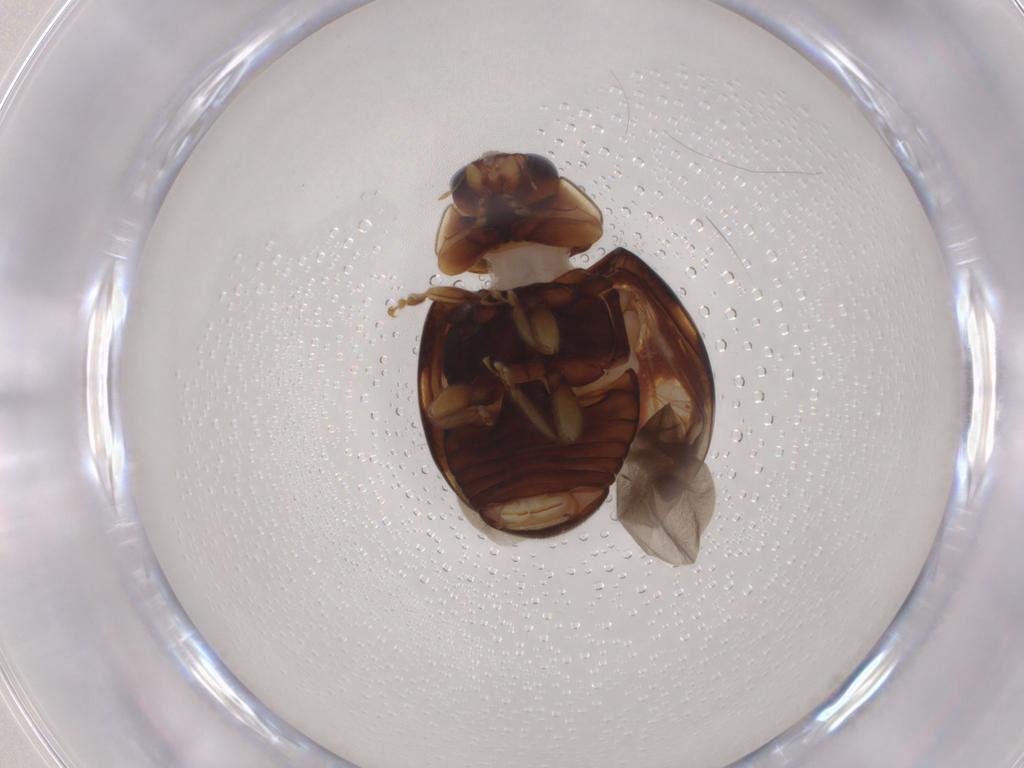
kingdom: Animalia
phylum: Arthropoda
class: Insecta
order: Coleoptera
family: Coccinellidae
